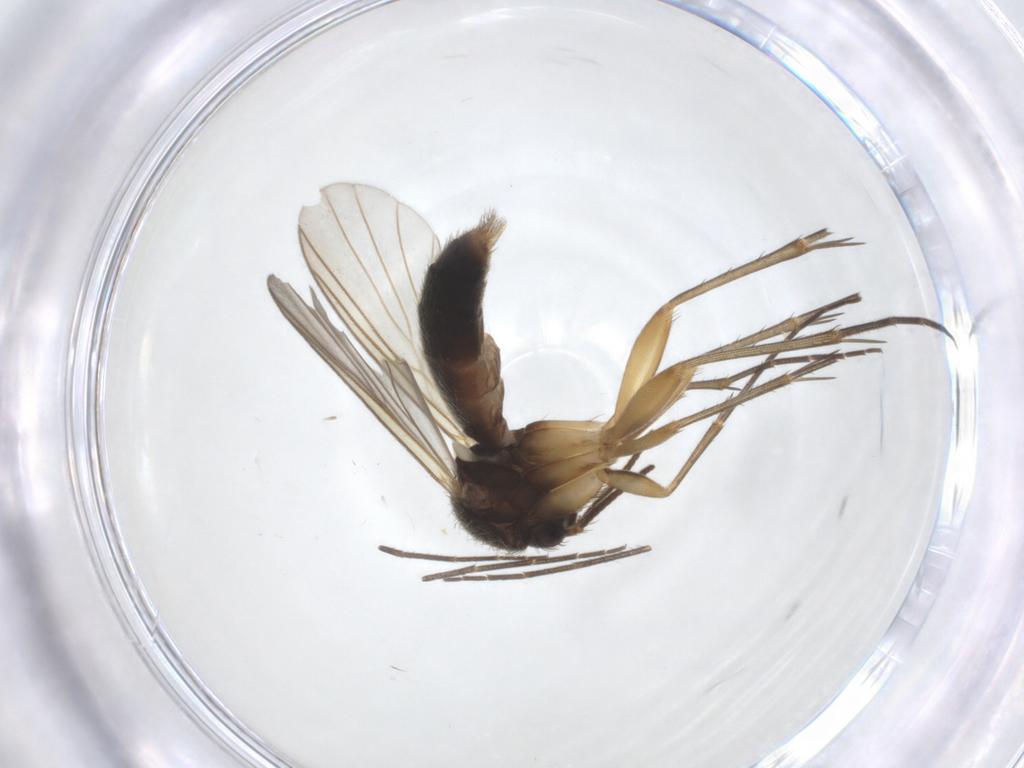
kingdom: Animalia
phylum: Arthropoda
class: Insecta
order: Diptera
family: Mycetophilidae
